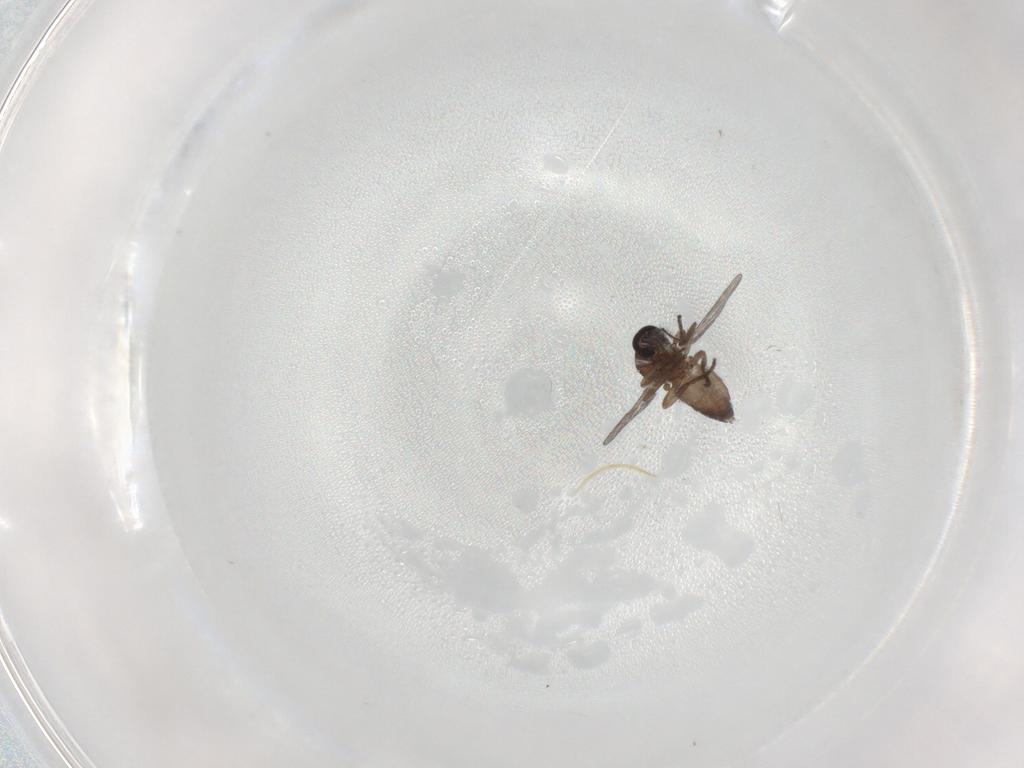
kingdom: Animalia
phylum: Arthropoda
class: Insecta
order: Diptera
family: Ceratopogonidae
